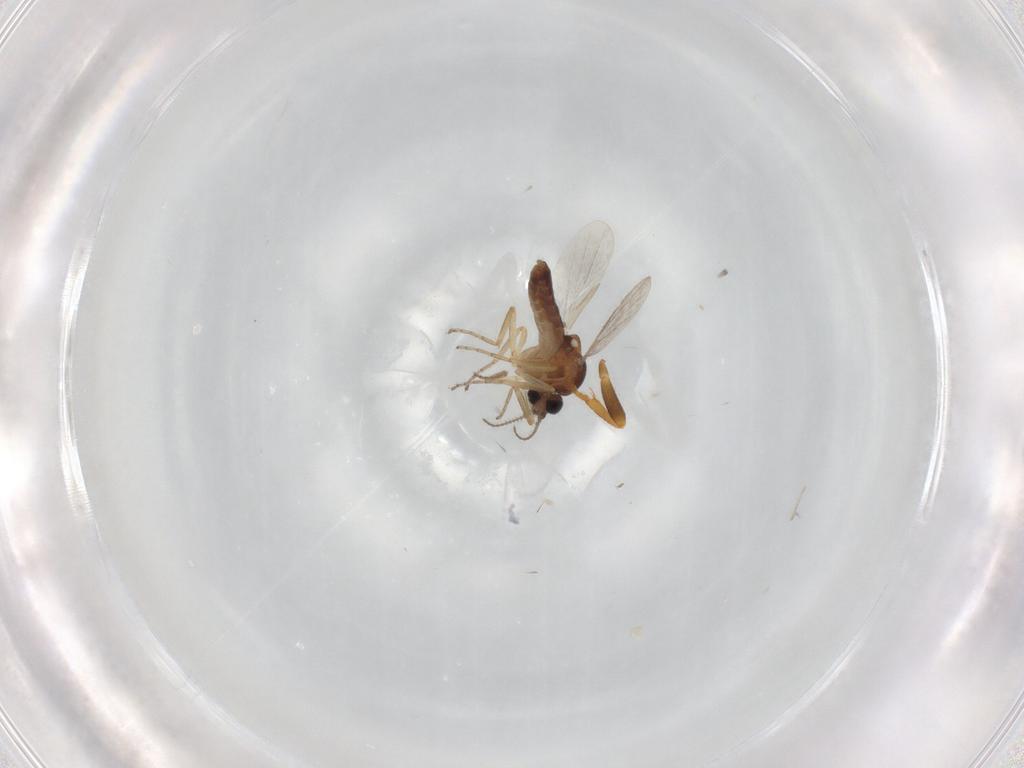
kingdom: Animalia
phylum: Arthropoda
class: Insecta
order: Diptera
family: Ceratopogonidae
